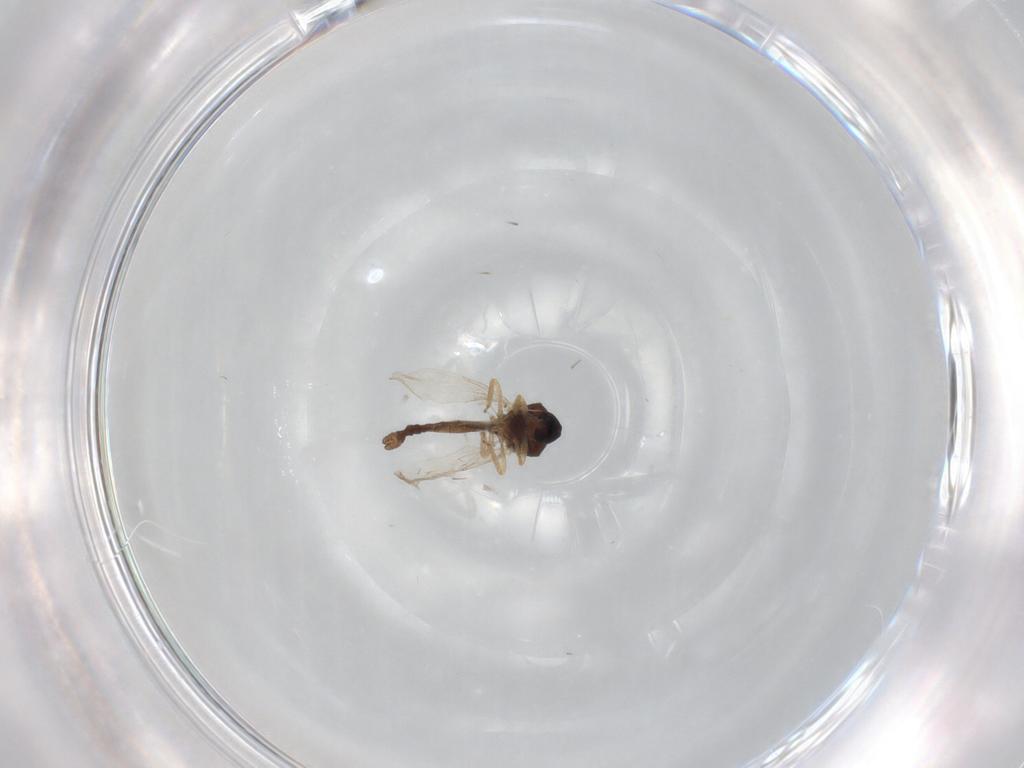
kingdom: Animalia
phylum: Arthropoda
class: Insecta
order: Diptera
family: Ceratopogonidae
